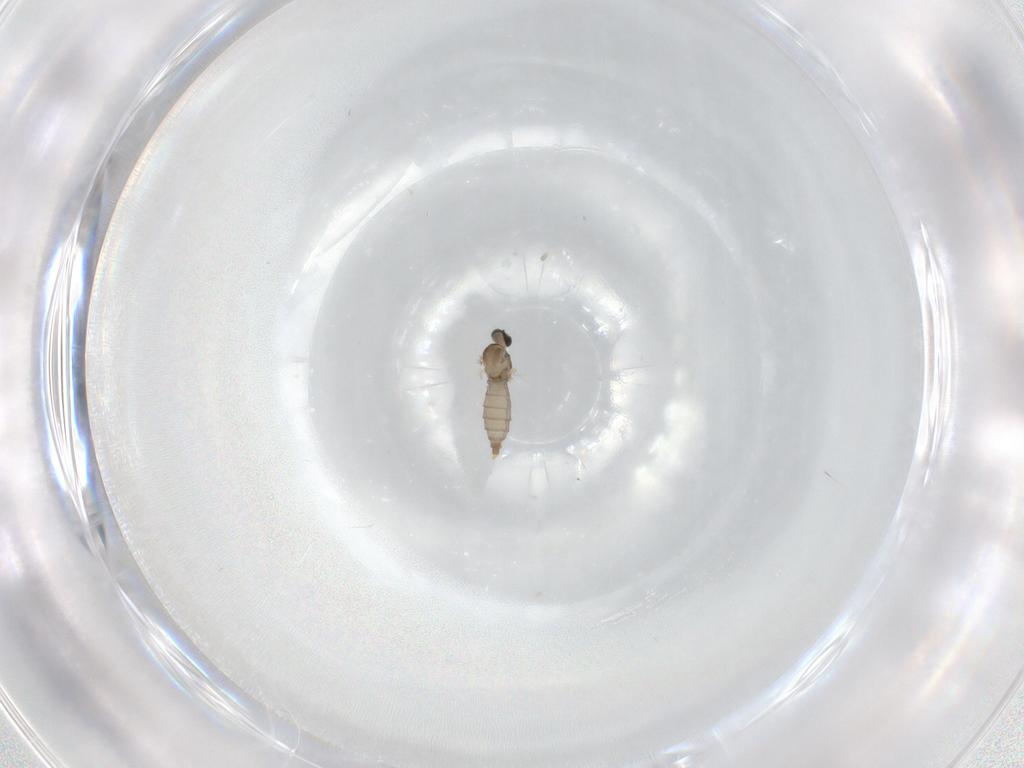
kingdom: Animalia
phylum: Arthropoda
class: Insecta
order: Diptera
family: Cecidomyiidae
